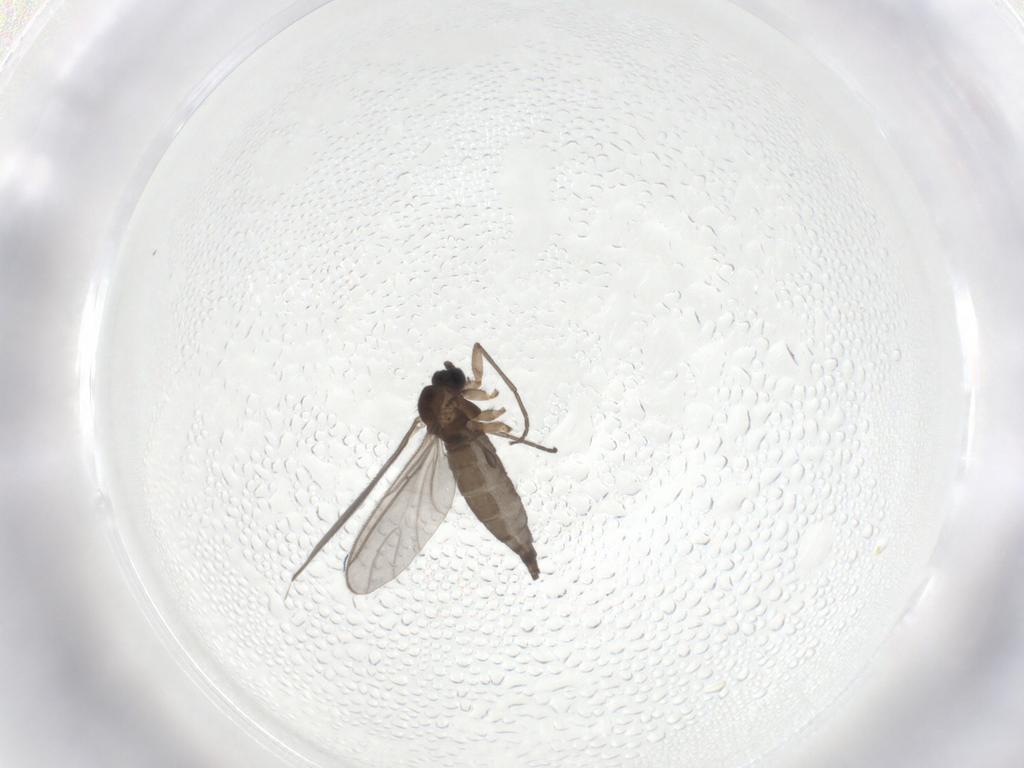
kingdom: Animalia
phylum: Arthropoda
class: Insecta
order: Diptera
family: Sciaridae
